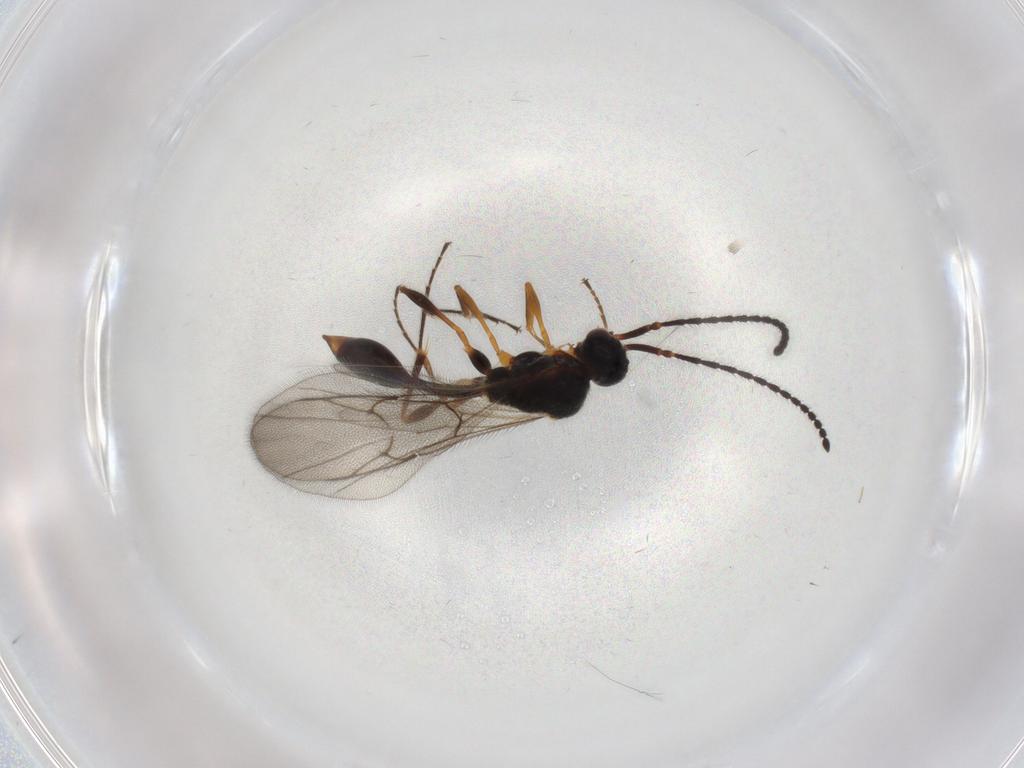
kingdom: Animalia
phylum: Arthropoda
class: Insecta
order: Hymenoptera
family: Diapriidae
